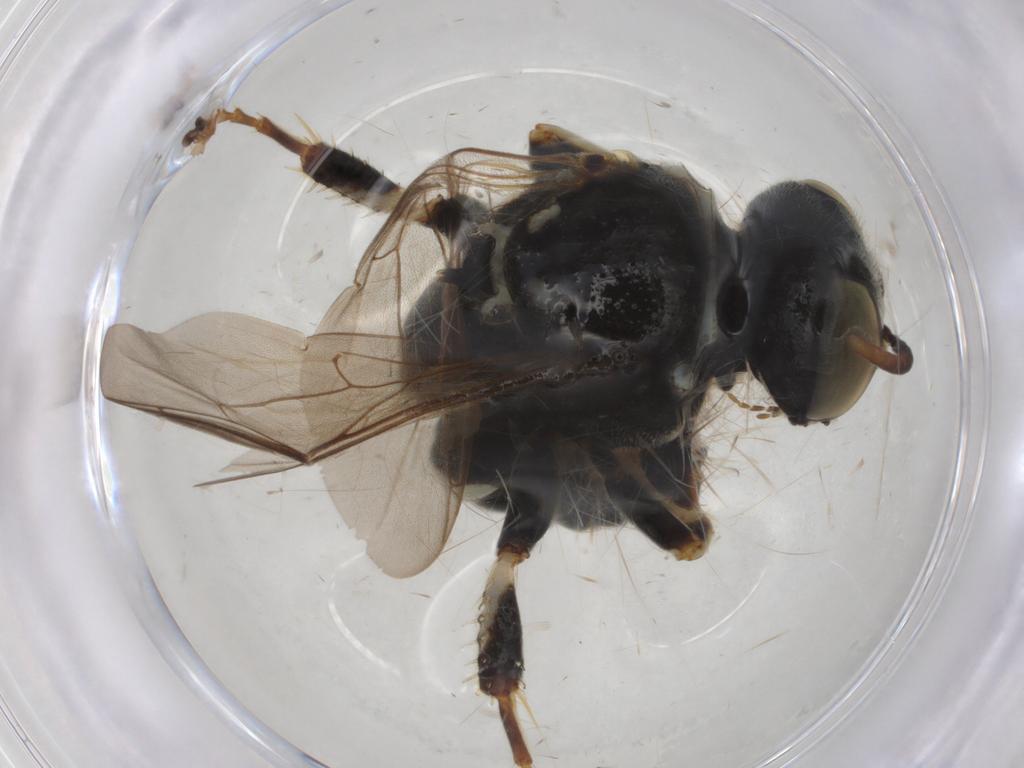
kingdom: Animalia
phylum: Arthropoda
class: Insecta
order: Hymenoptera
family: Crabronidae
